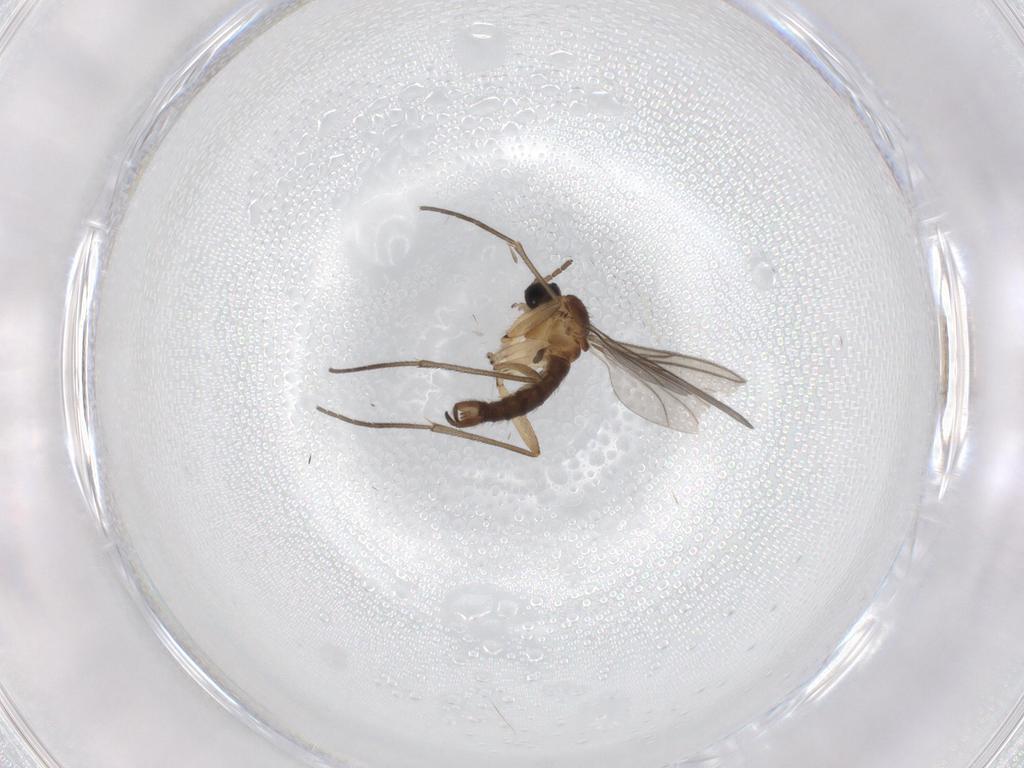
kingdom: Animalia
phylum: Arthropoda
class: Insecta
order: Diptera
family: Sciaridae
